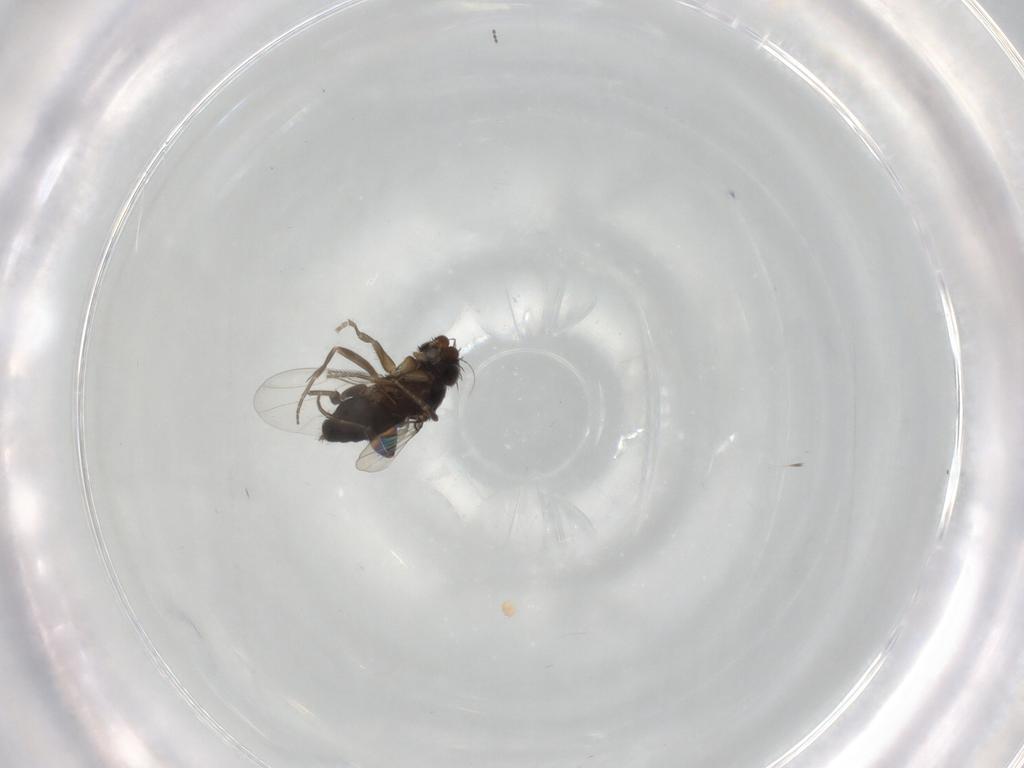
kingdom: Animalia
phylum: Arthropoda
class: Insecta
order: Diptera
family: Phoridae
